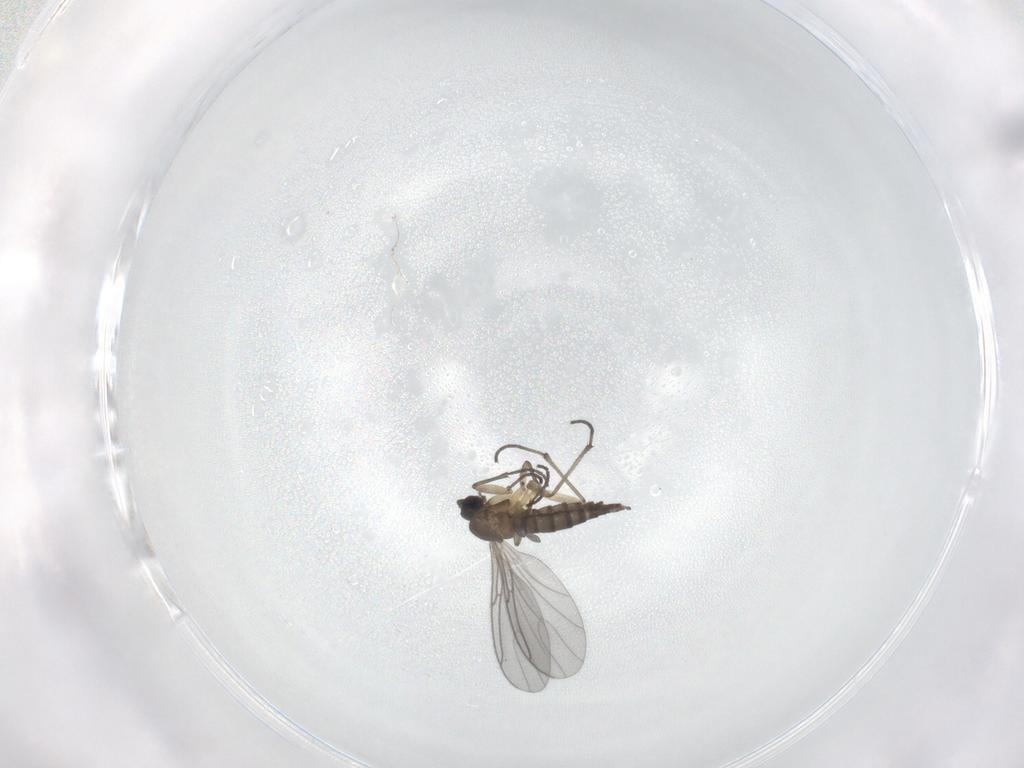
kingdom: Animalia
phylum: Arthropoda
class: Insecta
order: Diptera
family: Sciaridae
